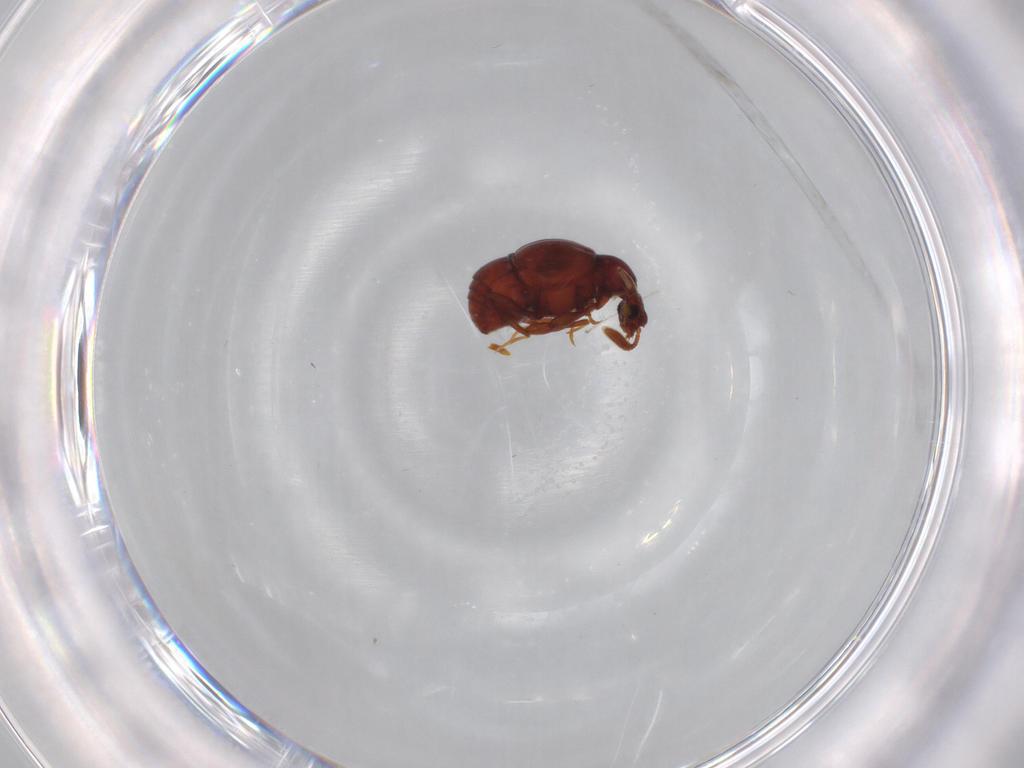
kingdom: Animalia
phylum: Arthropoda
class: Insecta
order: Coleoptera
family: Staphylinidae
